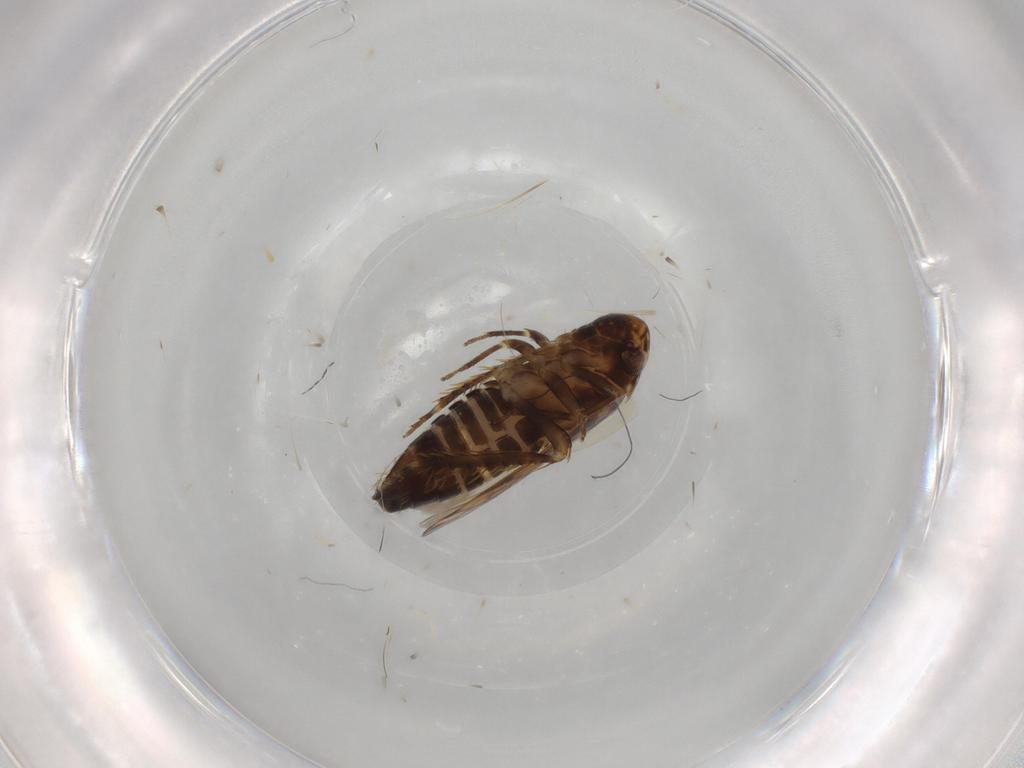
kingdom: Animalia
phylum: Arthropoda
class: Insecta
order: Hemiptera
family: Cicadellidae
